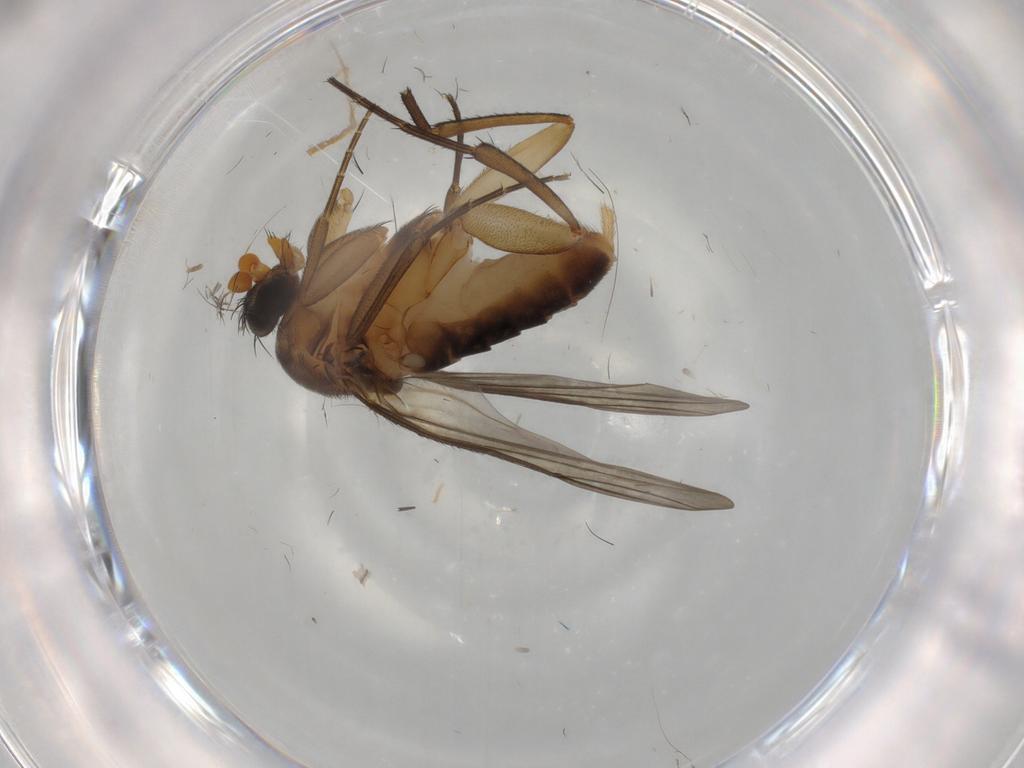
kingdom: Animalia
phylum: Arthropoda
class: Insecta
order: Diptera
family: Phoridae
